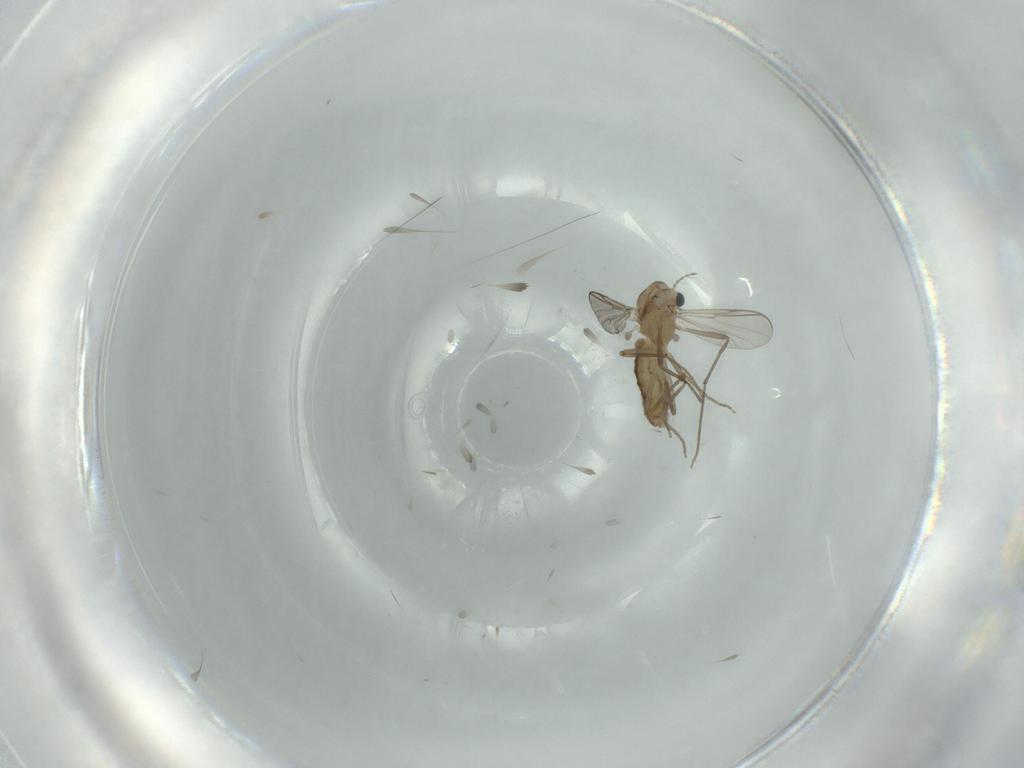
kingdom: Animalia
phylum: Arthropoda
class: Insecta
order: Diptera
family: Chironomidae
